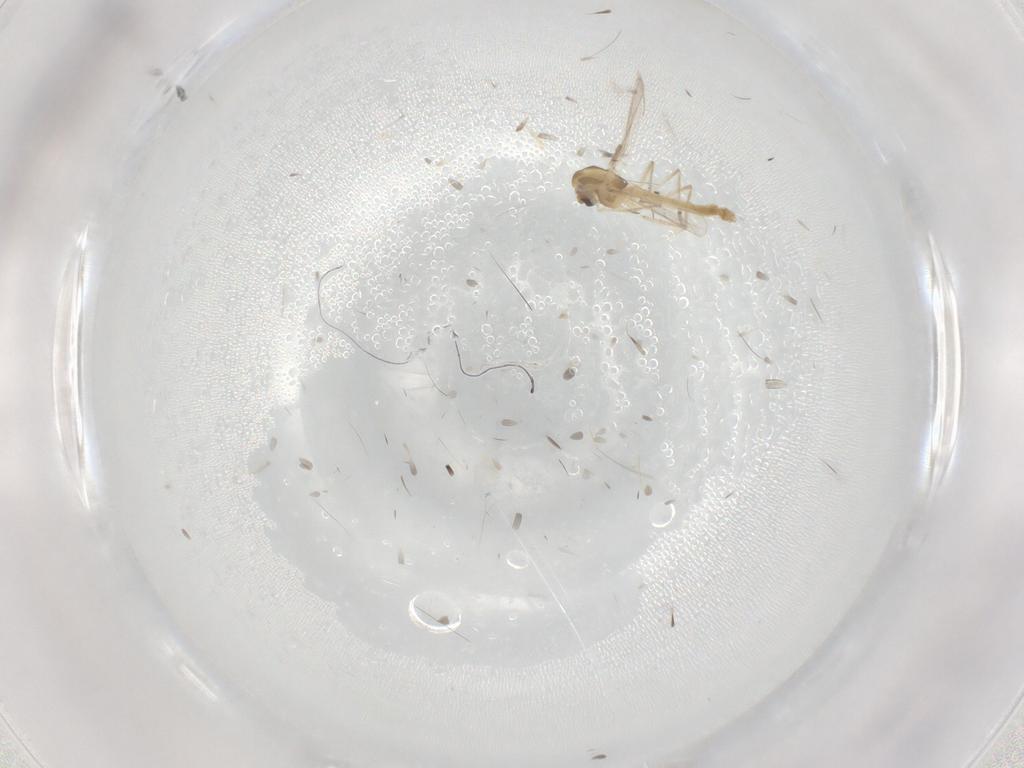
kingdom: Animalia
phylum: Arthropoda
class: Insecta
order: Diptera
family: Chironomidae
